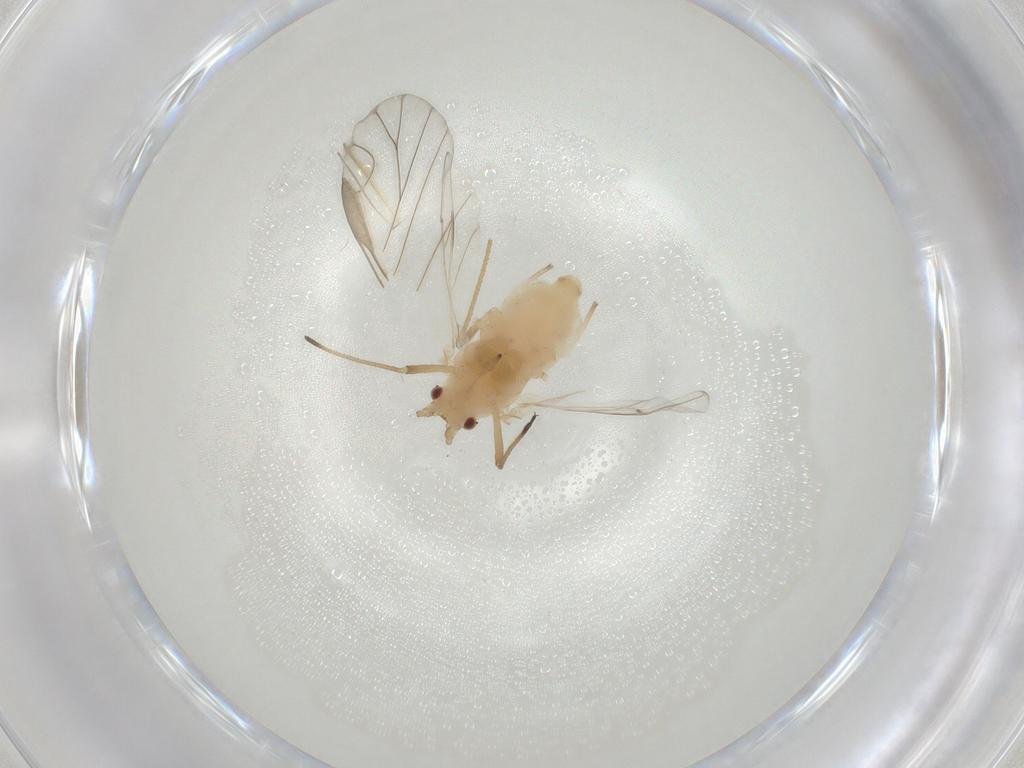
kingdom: Animalia
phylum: Arthropoda
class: Insecta
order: Hemiptera
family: Aphididae
